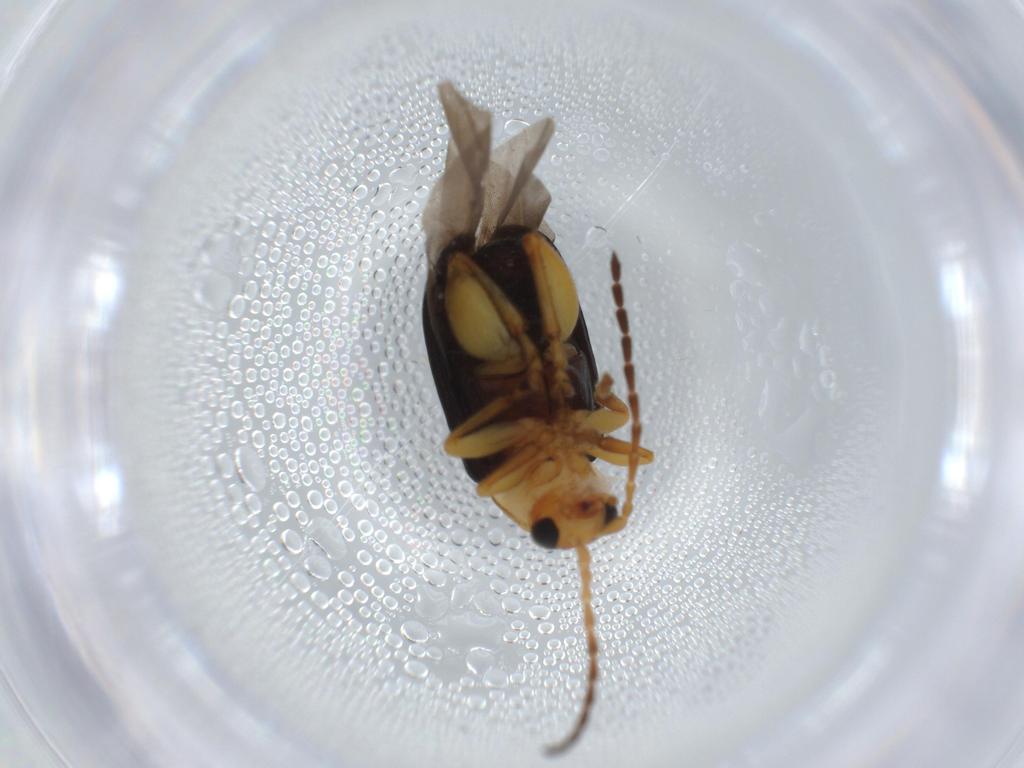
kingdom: Animalia
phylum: Arthropoda
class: Insecta
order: Coleoptera
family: Chrysomelidae
